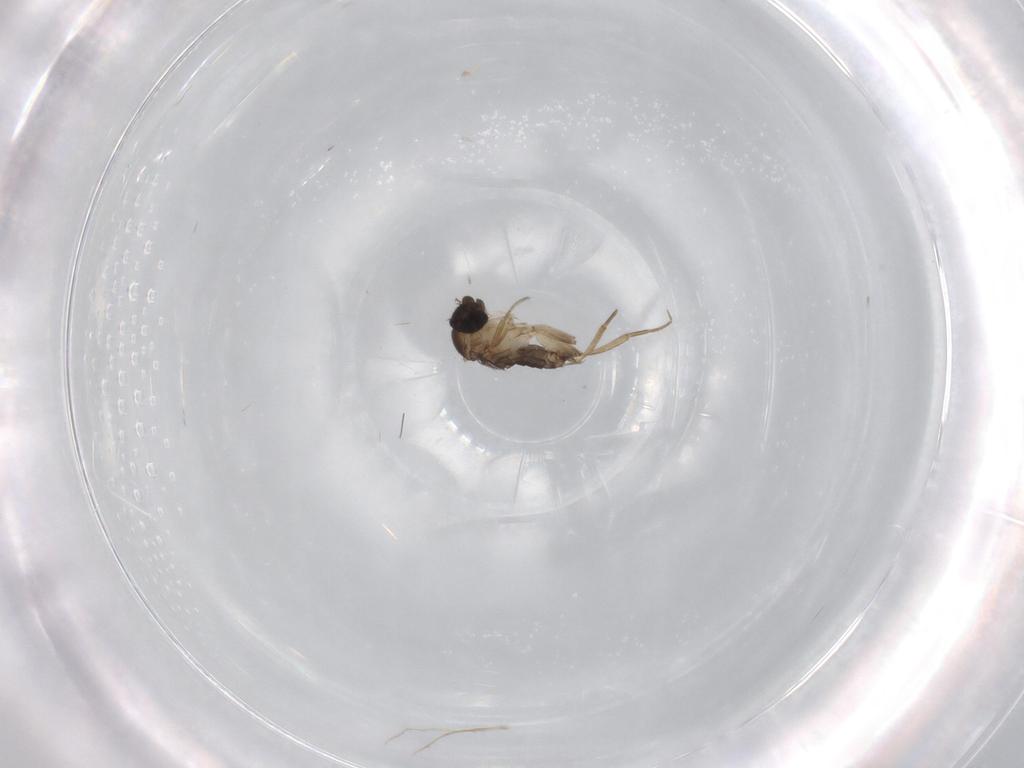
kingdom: Animalia
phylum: Arthropoda
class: Insecta
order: Diptera
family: Phoridae
